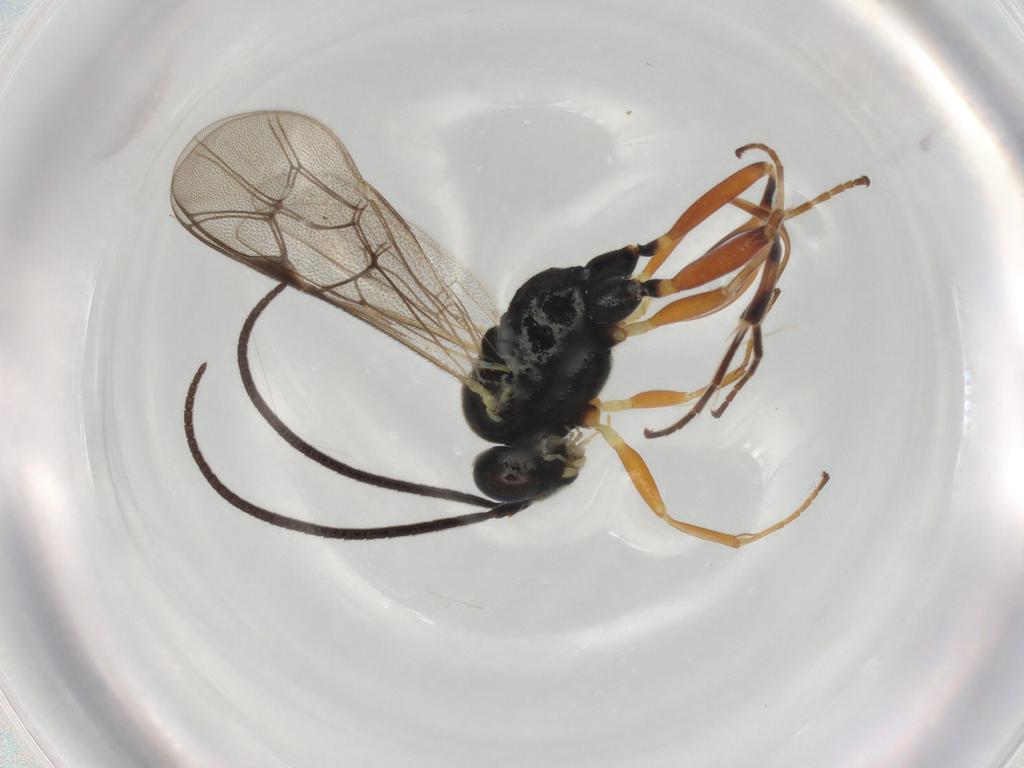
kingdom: Animalia
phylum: Arthropoda
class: Insecta
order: Hymenoptera
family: Ichneumonidae
